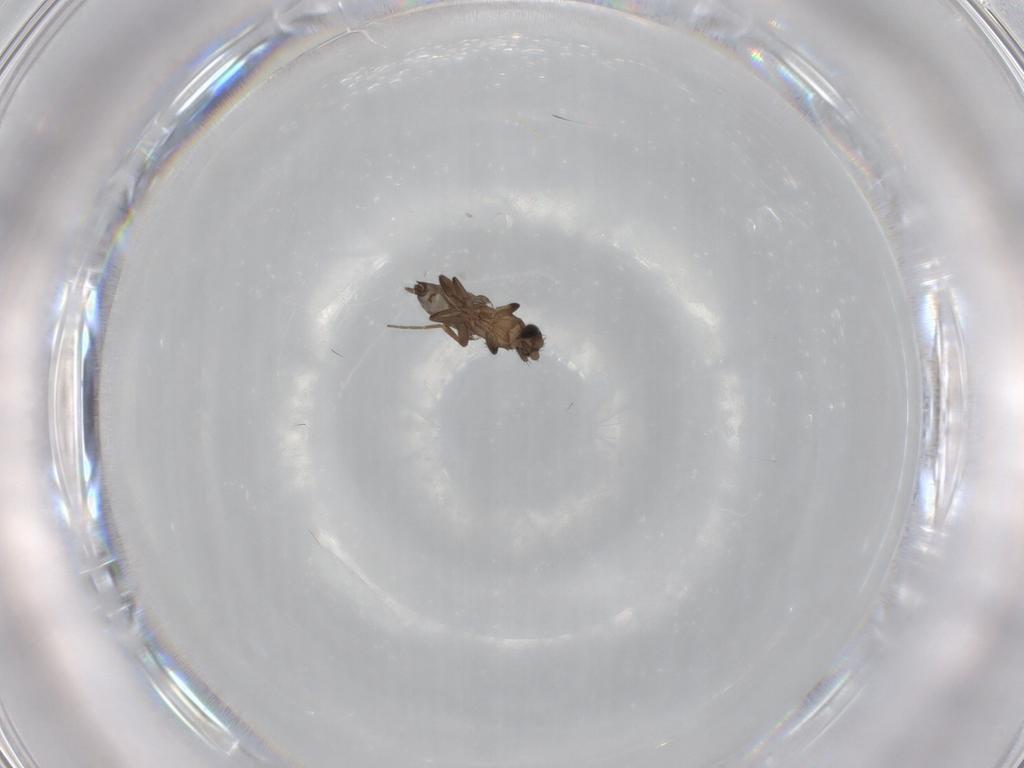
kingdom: Animalia
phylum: Arthropoda
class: Insecta
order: Diptera
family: Phoridae
